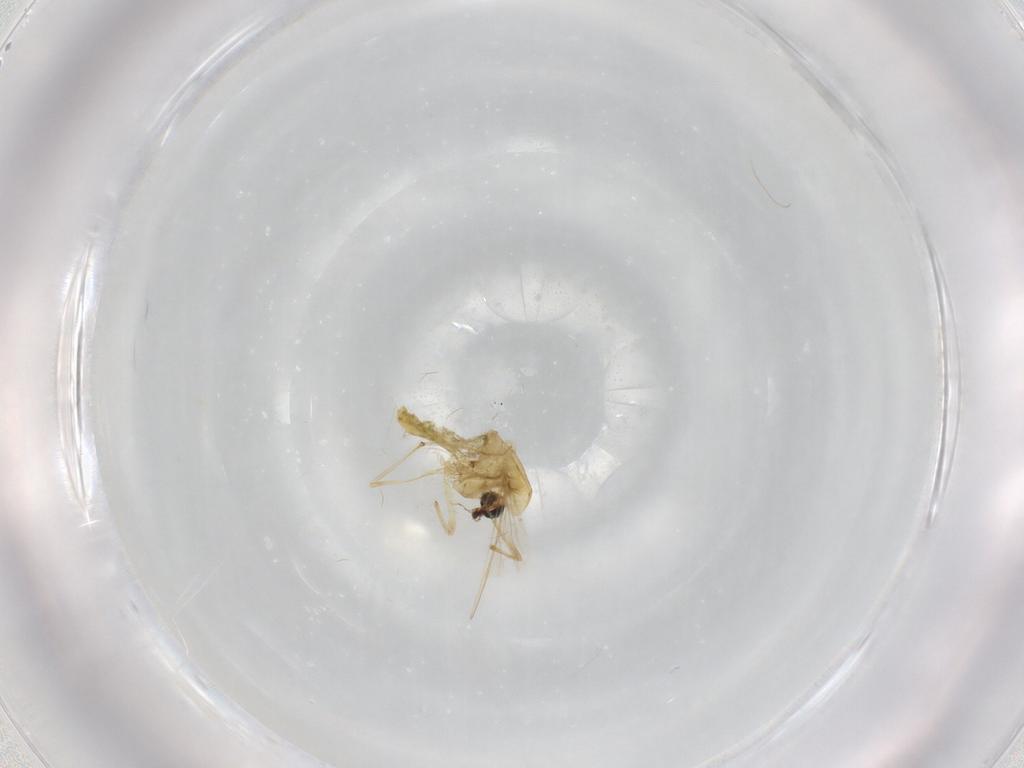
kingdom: Animalia
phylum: Arthropoda
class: Insecta
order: Diptera
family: Chironomidae
